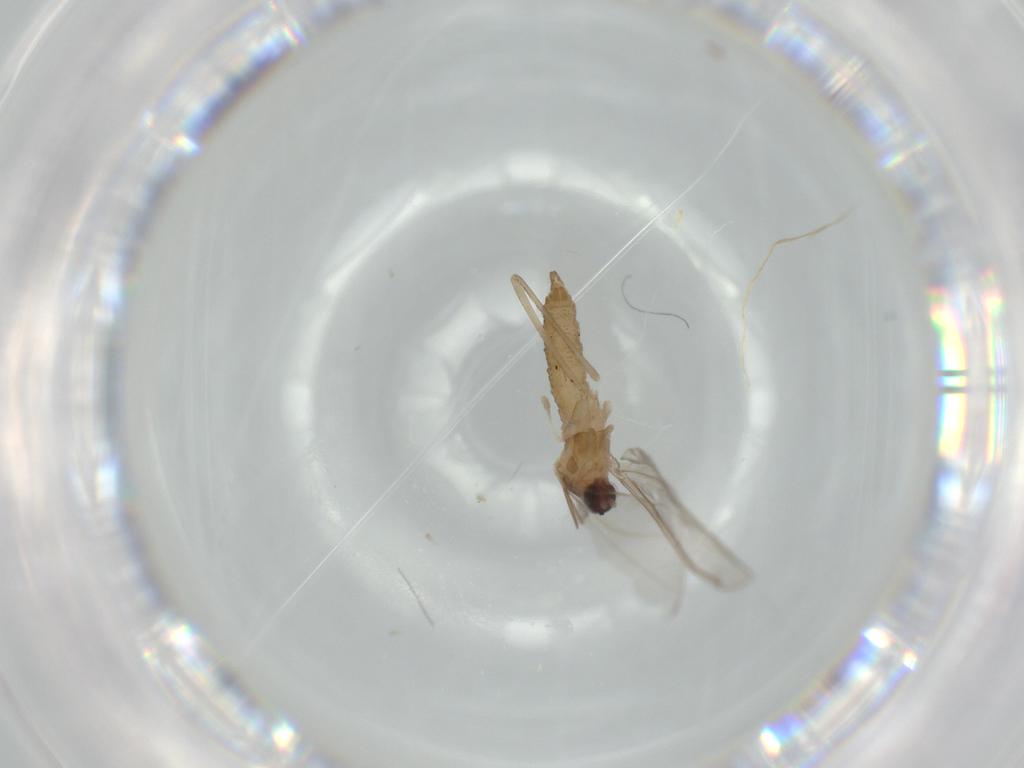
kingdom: Animalia
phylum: Arthropoda
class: Insecta
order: Diptera
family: Cecidomyiidae
